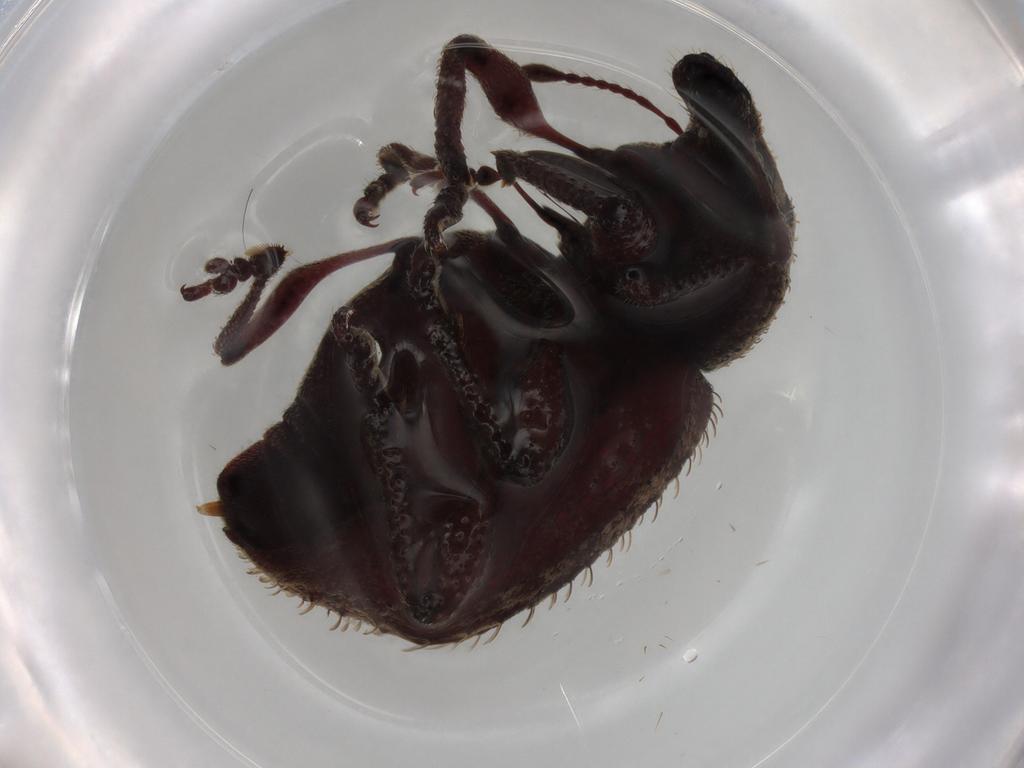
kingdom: Animalia
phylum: Arthropoda
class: Insecta
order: Coleoptera
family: Curculionidae
